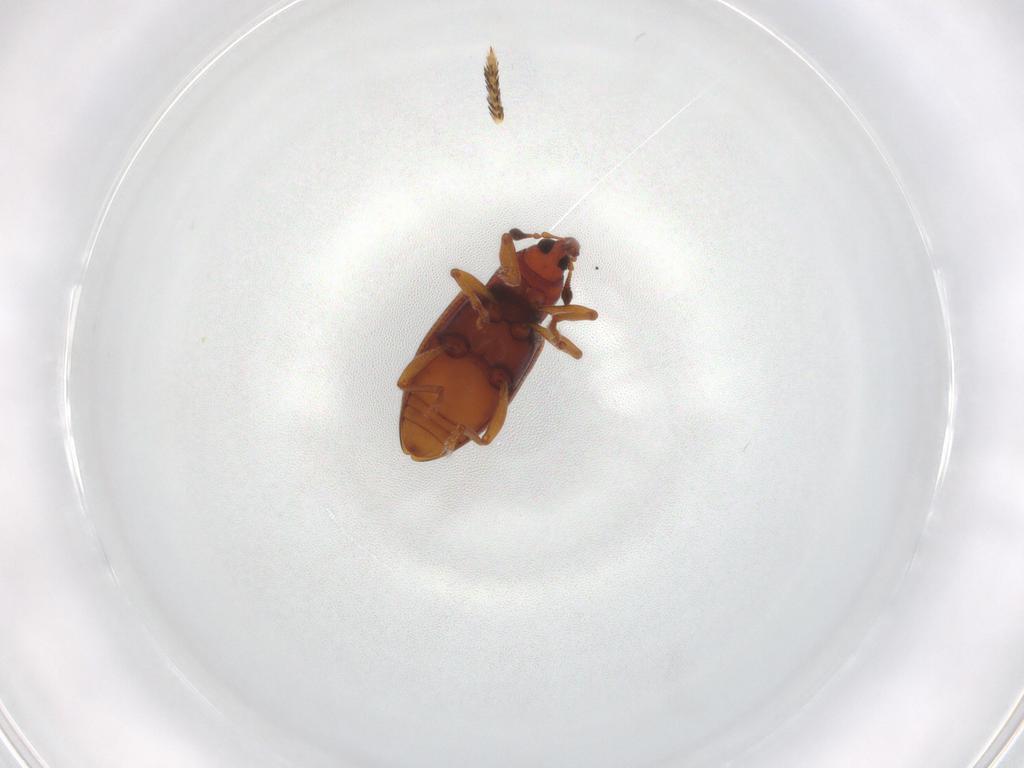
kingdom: Animalia
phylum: Arthropoda
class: Insecta
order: Coleoptera
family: Curculionidae
